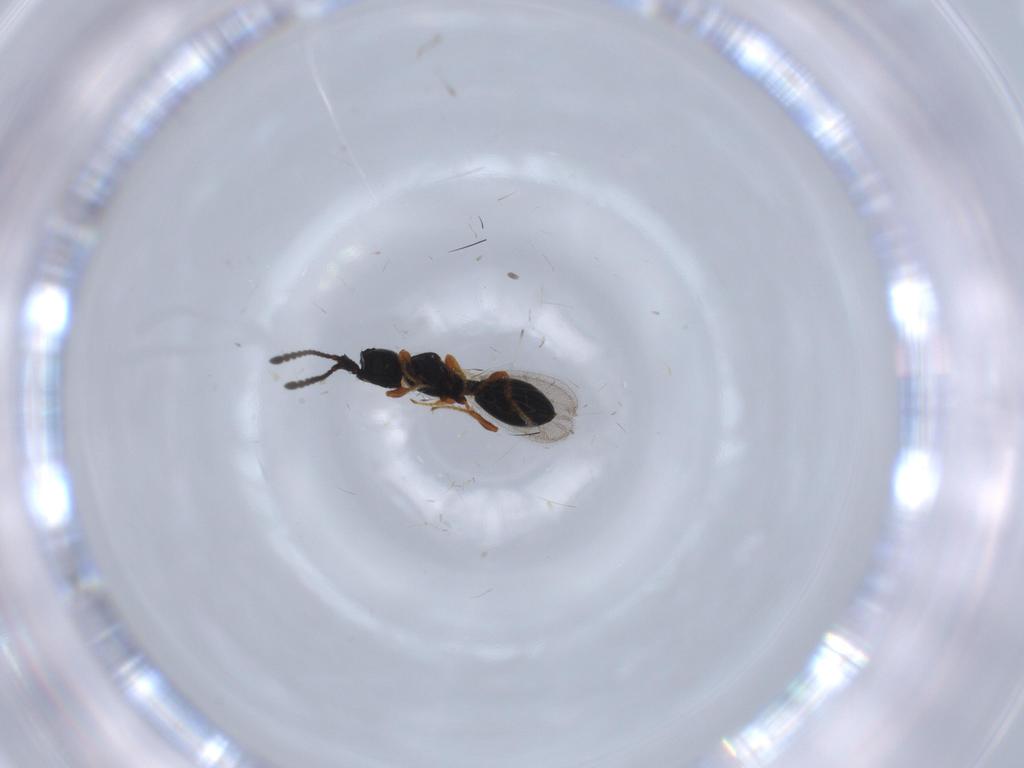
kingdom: Animalia
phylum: Arthropoda
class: Insecta
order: Hymenoptera
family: Diapriidae
